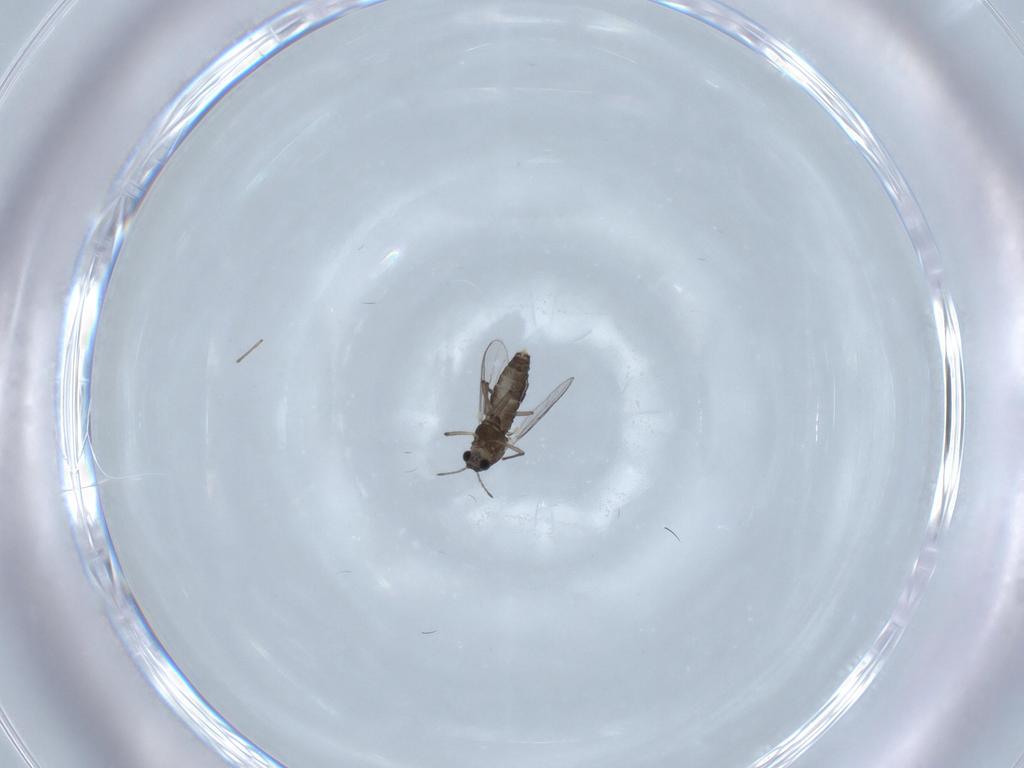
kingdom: Animalia
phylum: Arthropoda
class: Insecta
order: Diptera
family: Chironomidae
